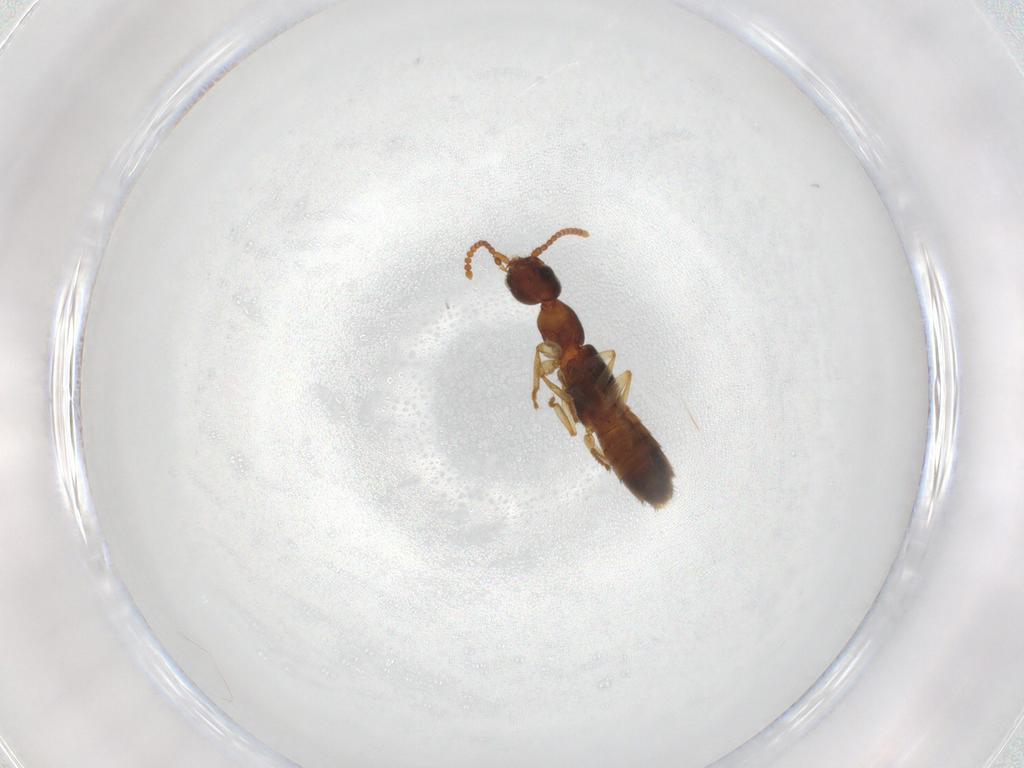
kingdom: Animalia
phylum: Arthropoda
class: Insecta
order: Coleoptera
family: Staphylinidae
